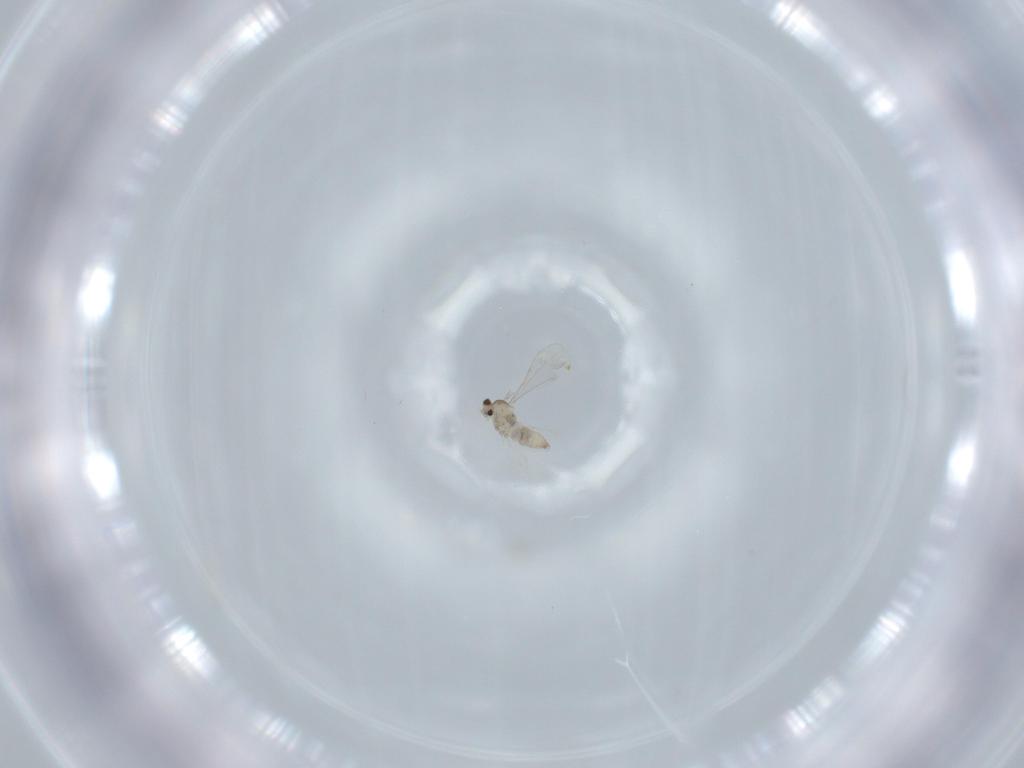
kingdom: Animalia
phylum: Arthropoda
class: Insecta
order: Diptera
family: Cecidomyiidae
